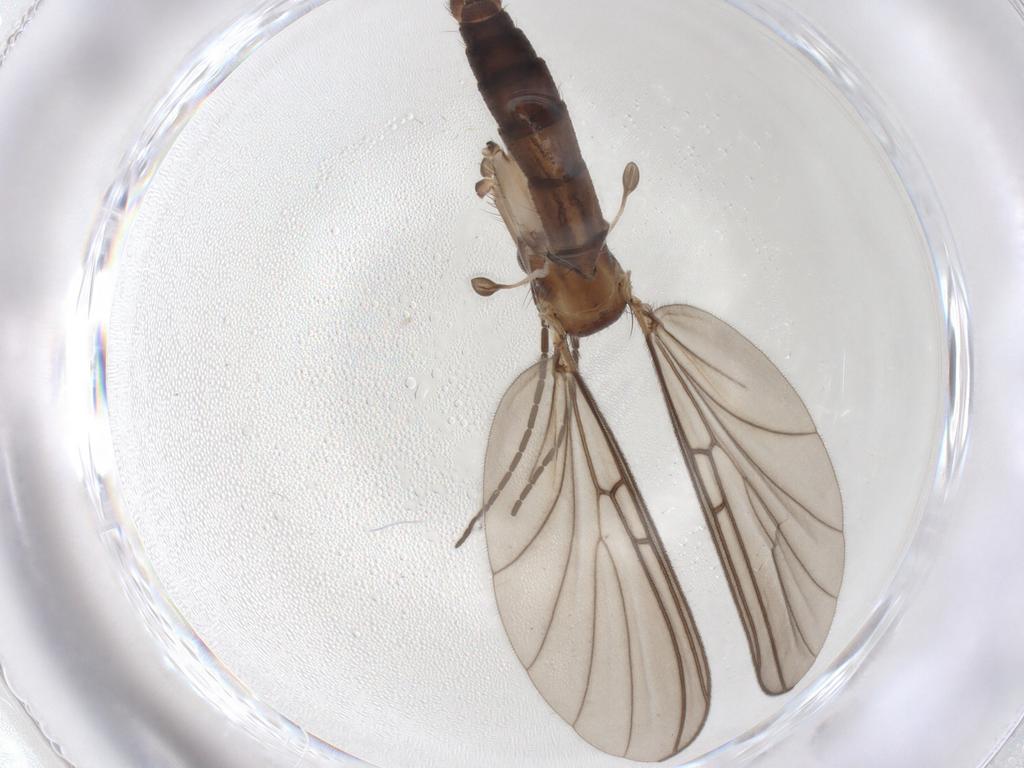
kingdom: Animalia
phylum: Arthropoda
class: Insecta
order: Diptera
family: Mycetophilidae
